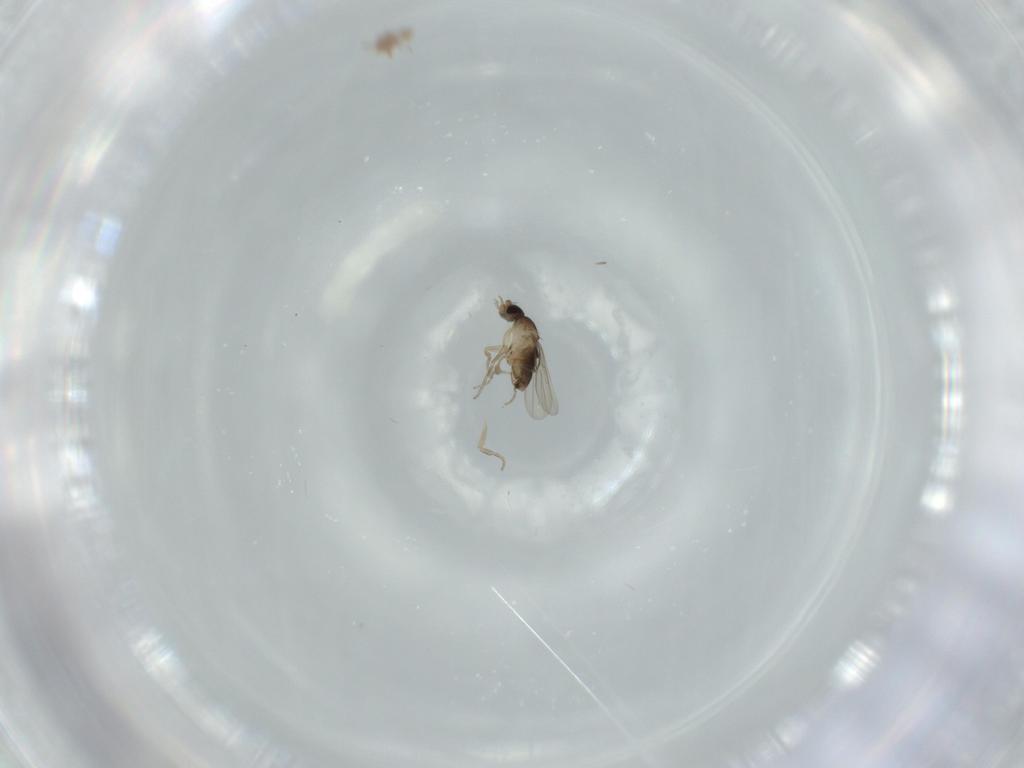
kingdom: Animalia
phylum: Arthropoda
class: Insecta
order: Diptera
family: Phoridae
